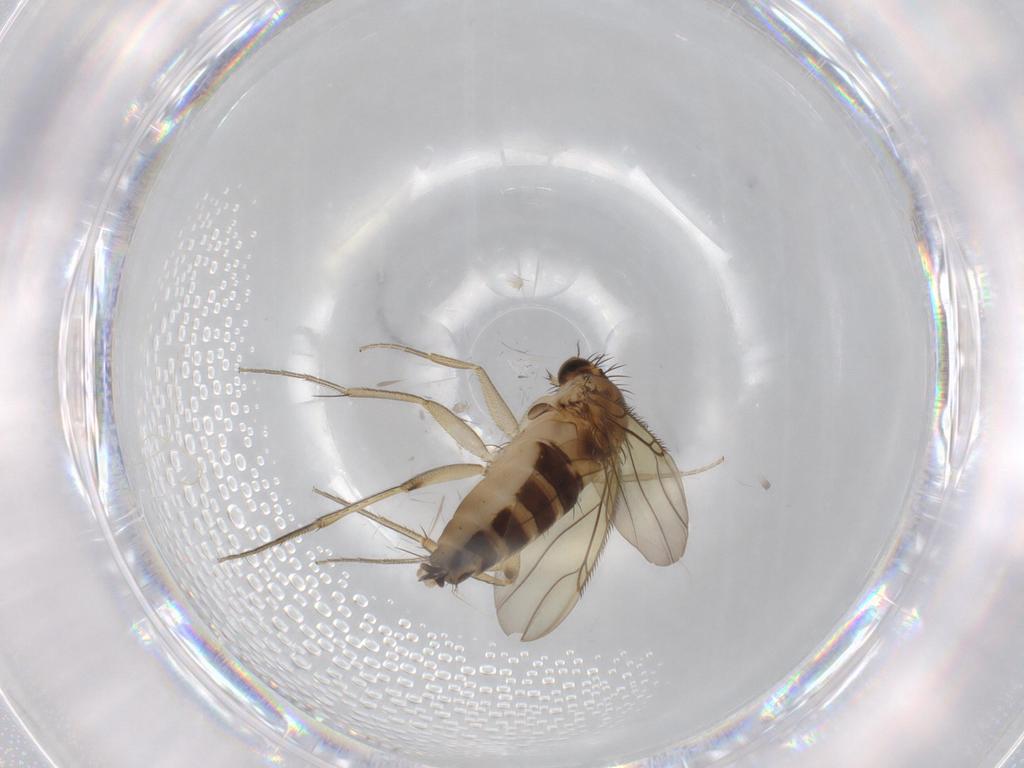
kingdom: Animalia
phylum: Arthropoda
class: Insecta
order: Diptera
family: Phoridae
